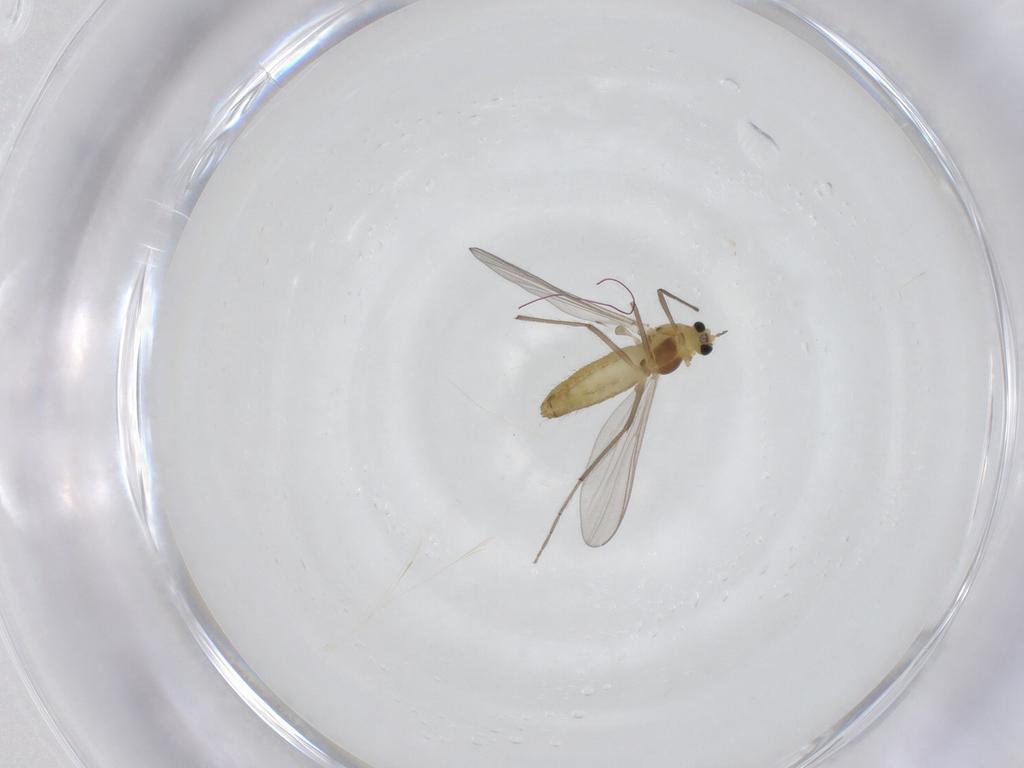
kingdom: Animalia
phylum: Arthropoda
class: Insecta
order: Diptera
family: Chironomidae
